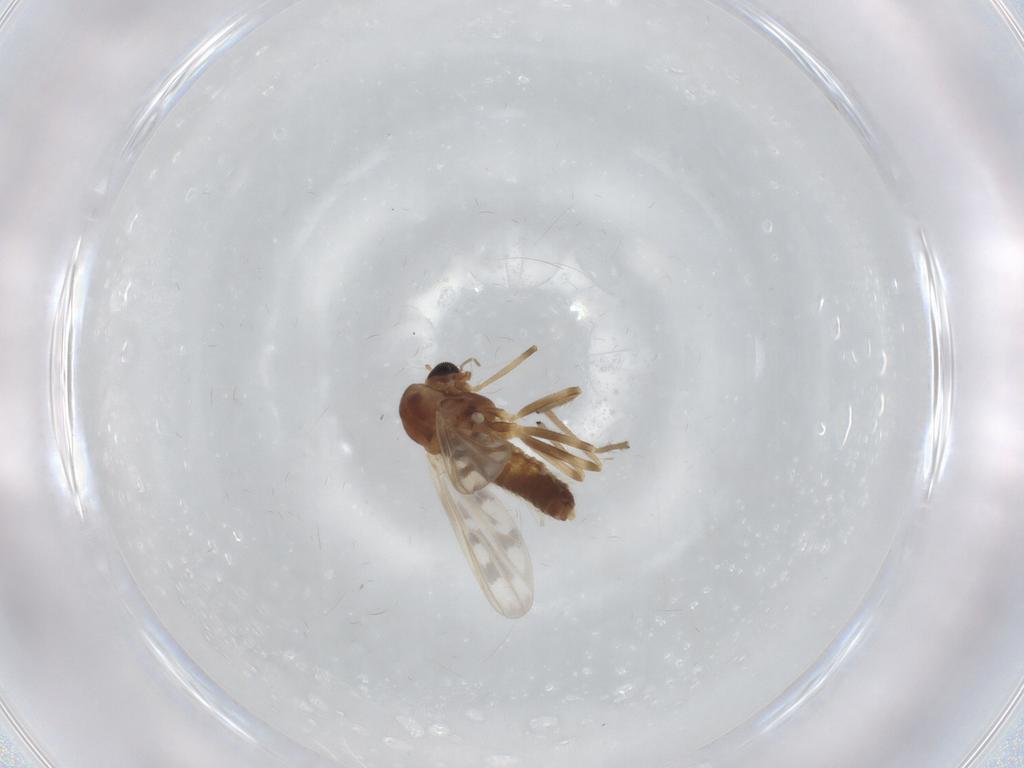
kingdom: Animalia
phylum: Arthropoda
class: Insecta
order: Diptera
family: Chironomidae
